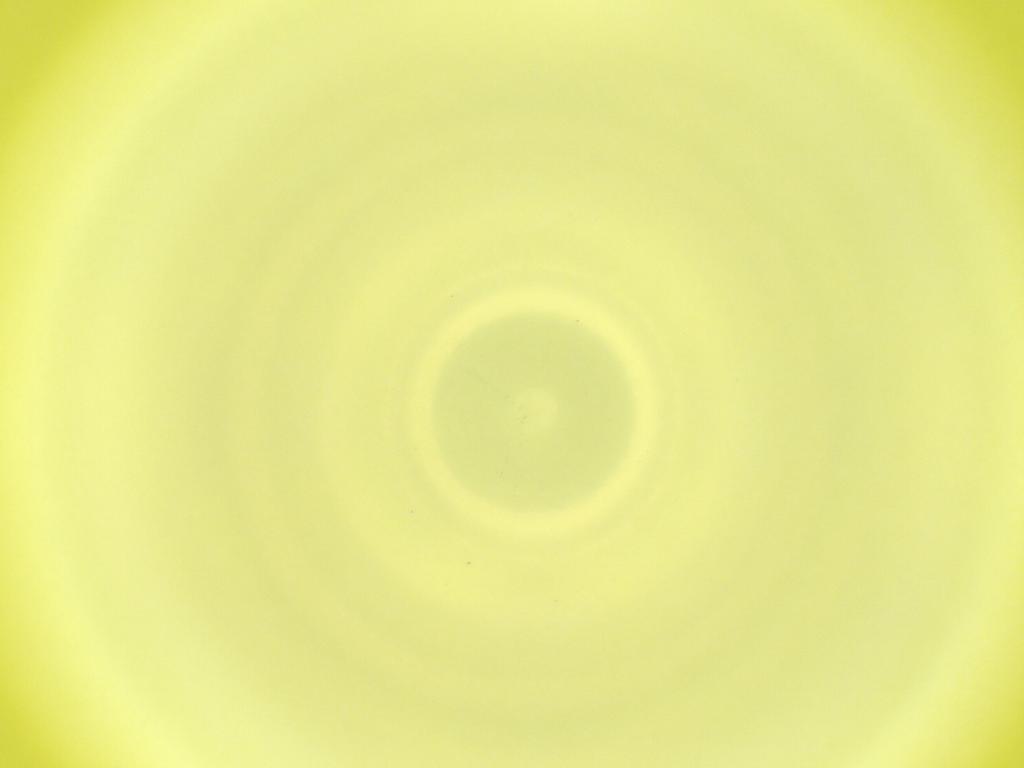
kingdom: Animalia
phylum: Arthropoda
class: Insecta
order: Diptera
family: Cecidomyiidae
